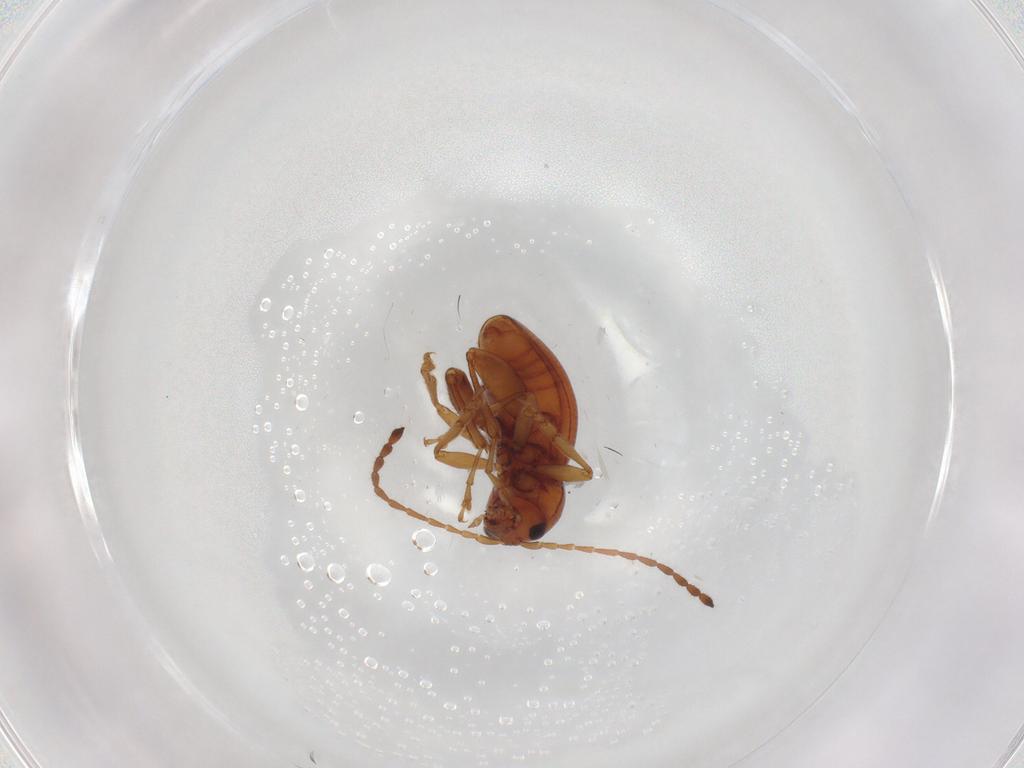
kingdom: Animalia
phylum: Arthropoda
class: Insecta
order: Coleoptera
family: Chrysomelidae
